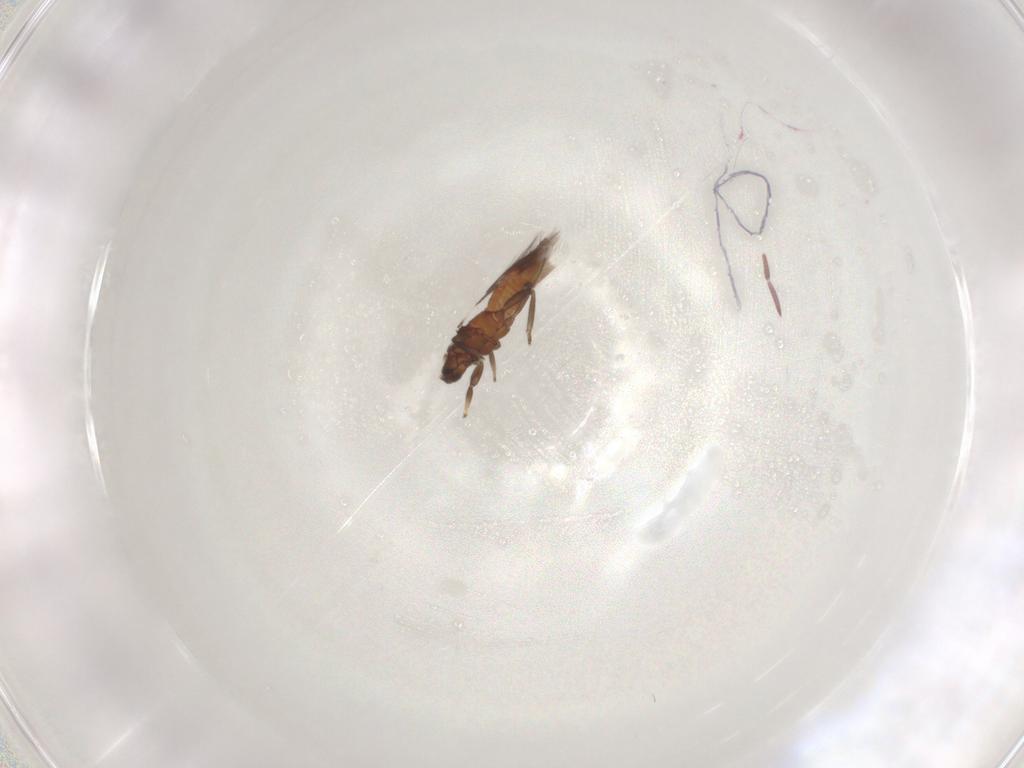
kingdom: Animalia
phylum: Arthropoda
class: Insecta
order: Thysanoptera
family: Aeolothripidae
